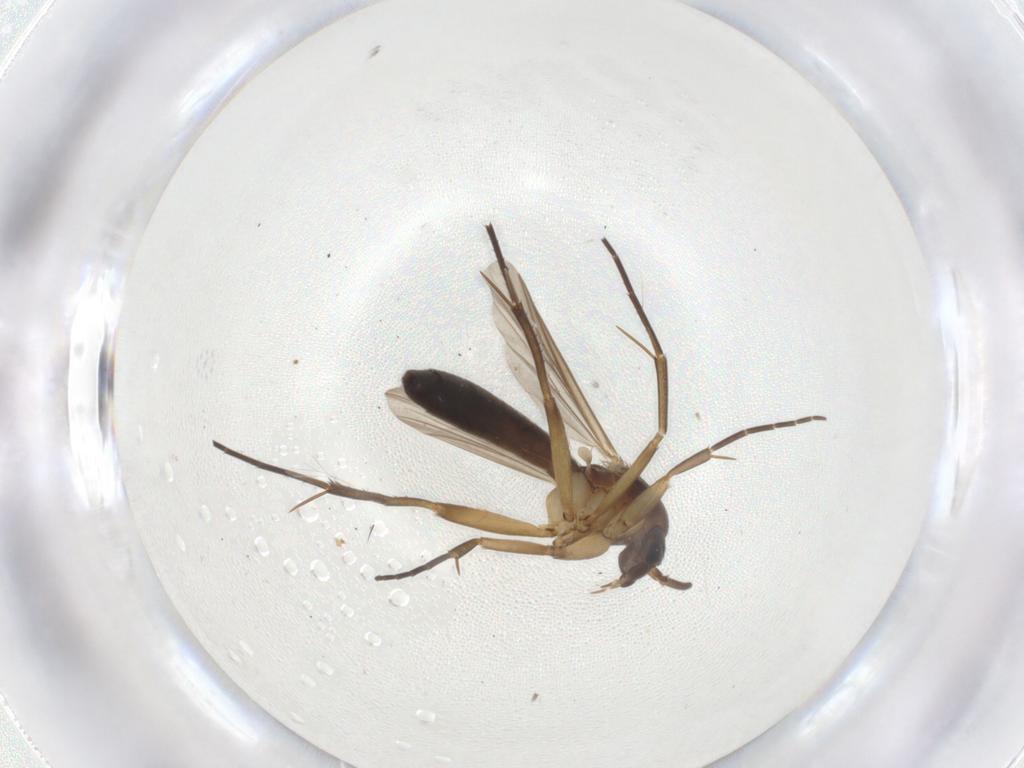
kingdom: Animalia
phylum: Arthropoda
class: Insecta
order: Diptera
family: Mycetophilidae
